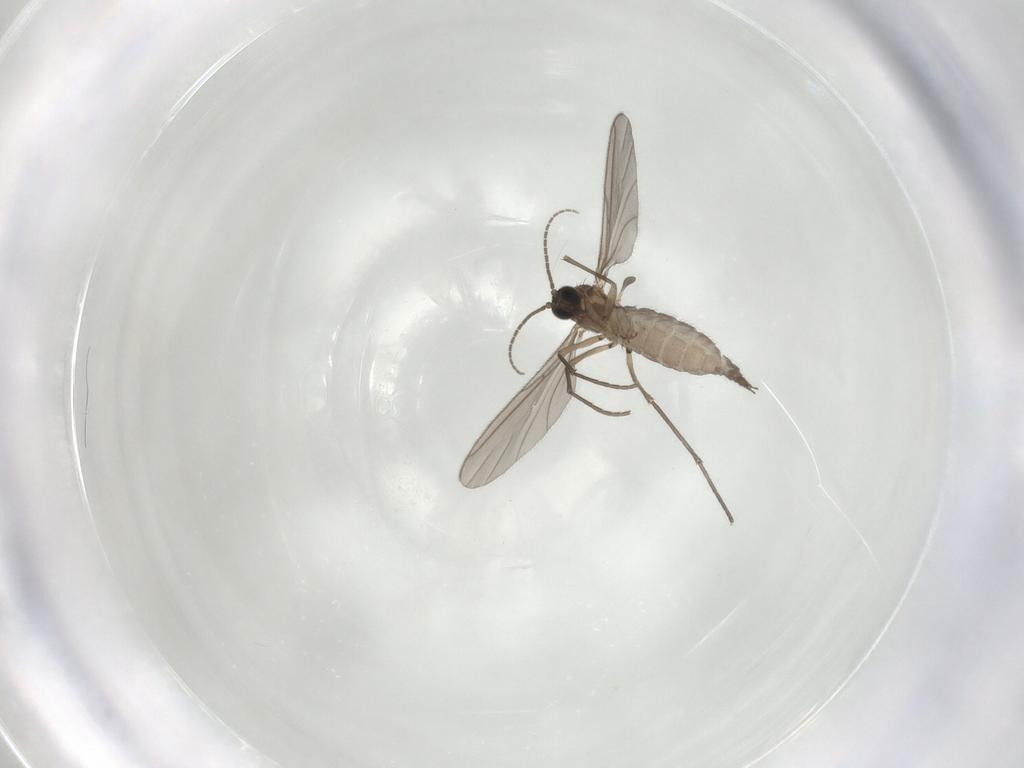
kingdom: Animalia
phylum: Arthropoda
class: Insecta
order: Diptera
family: Sciaridae
